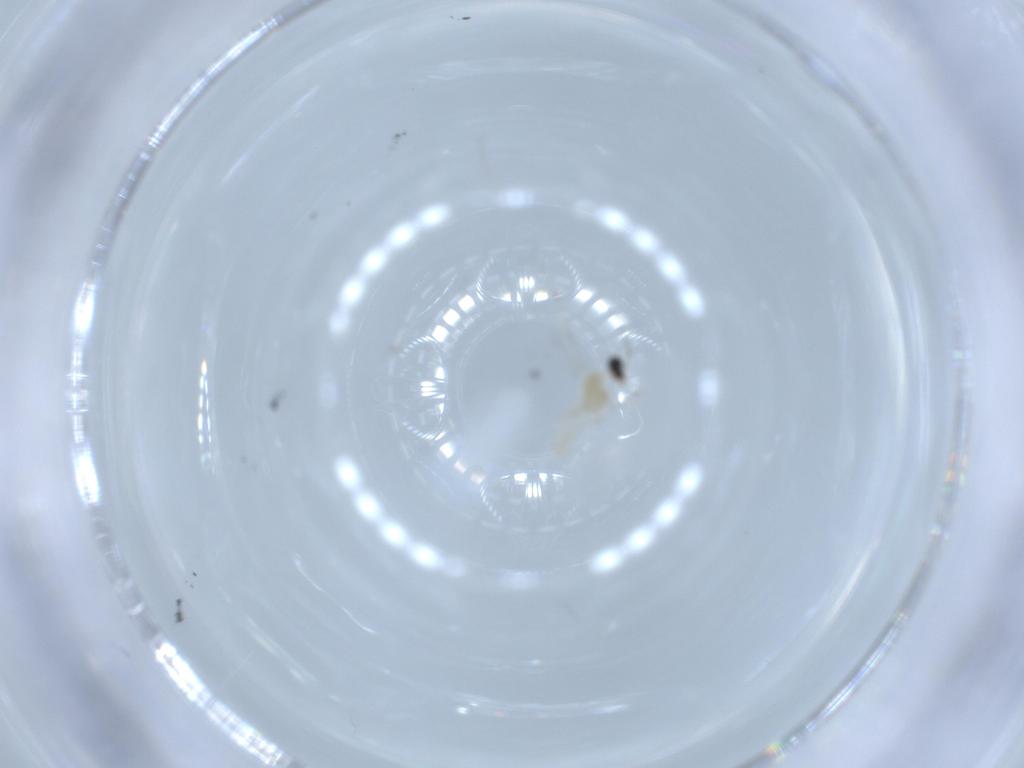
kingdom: Animalia
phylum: Arthropoda
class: Insecta
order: Diptera
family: Cecidomyiidae
